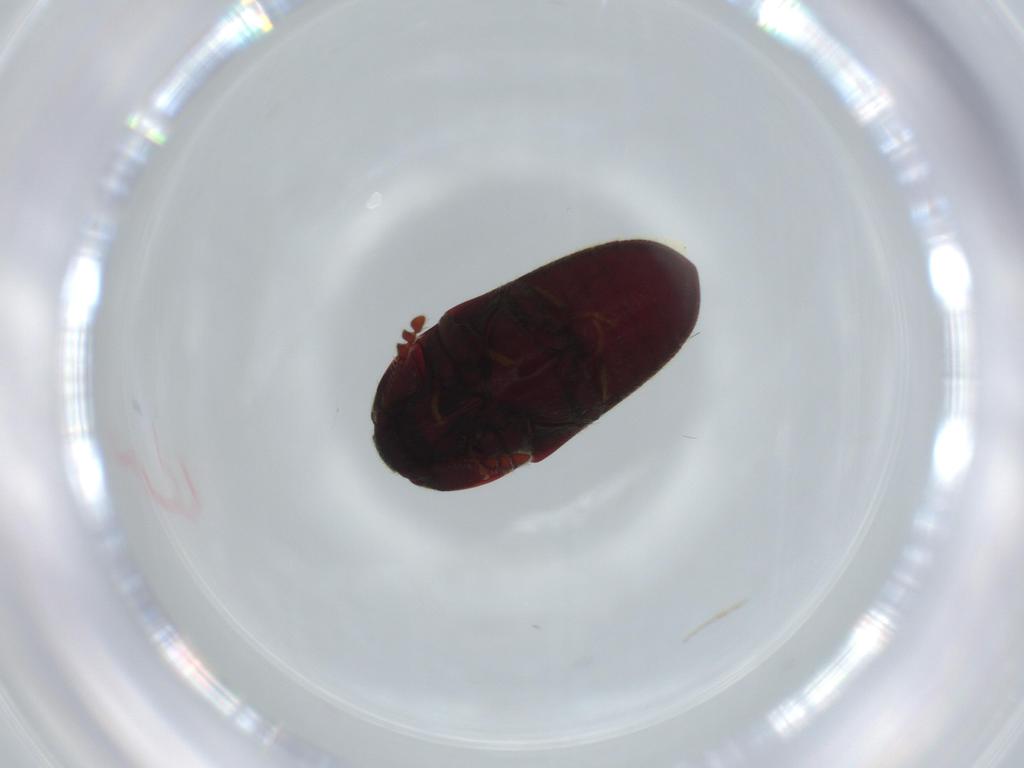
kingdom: Animalia
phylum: Arthropoda
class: Insecta
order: Coleoptera
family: Throscidae
